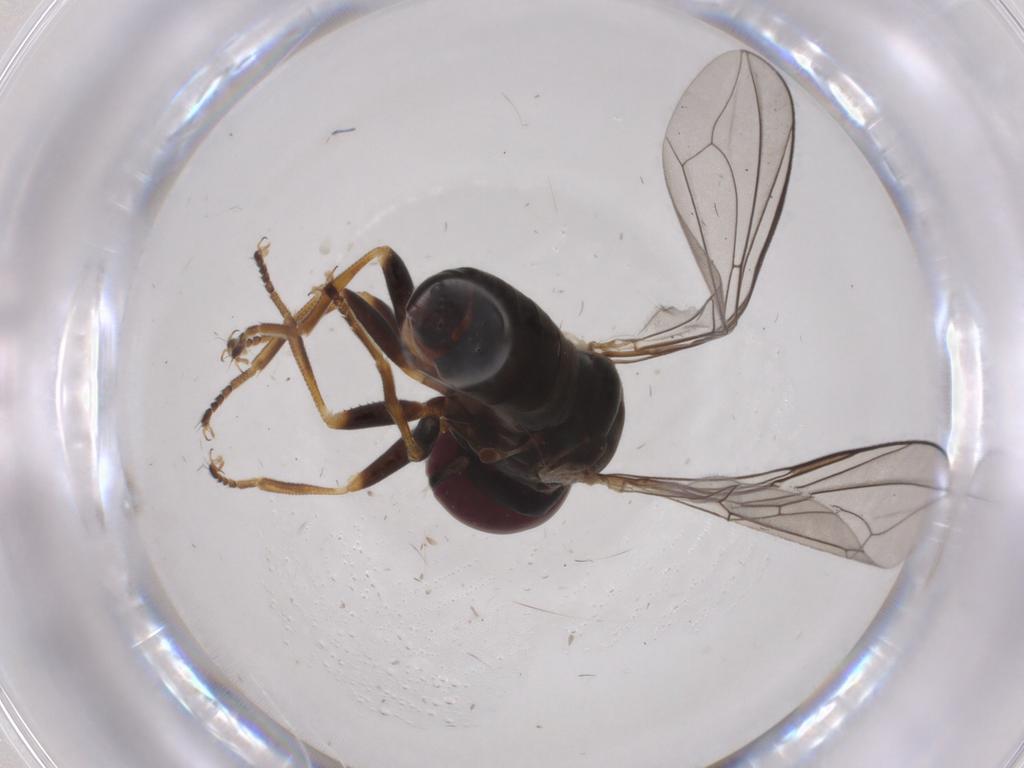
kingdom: Animalia
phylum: Arthropoda
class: Insecta
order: Diptera
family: Pipunculidae
